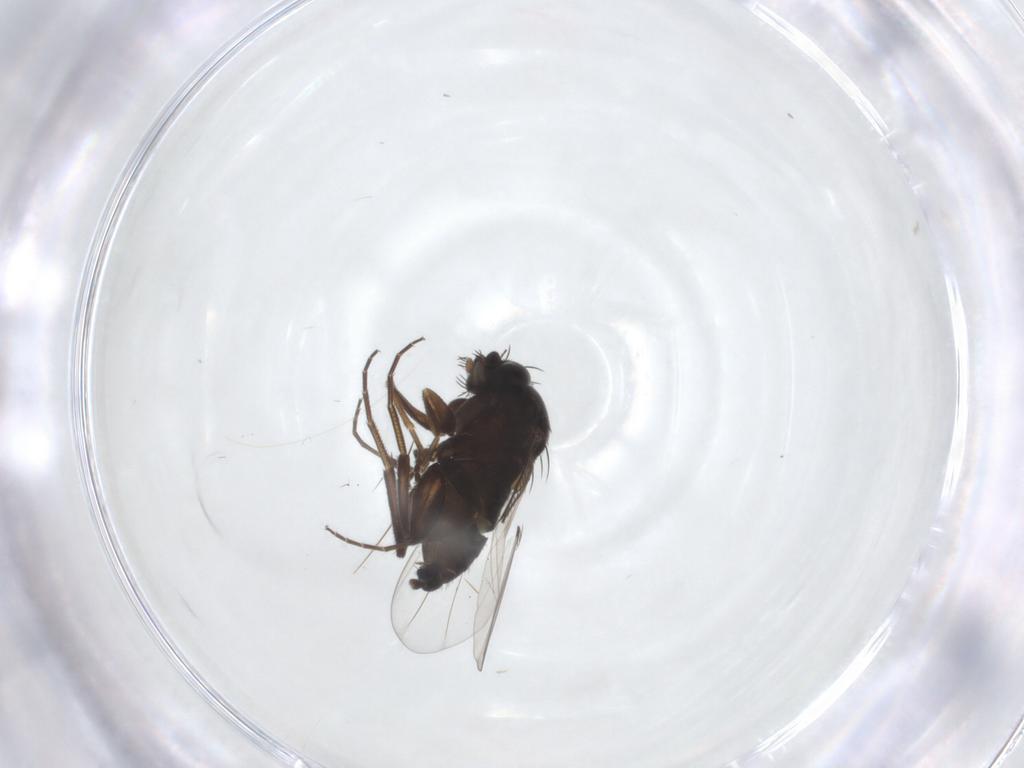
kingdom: Animalia
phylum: Arthropoda
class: Insecta
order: Diptera
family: Phoridae
